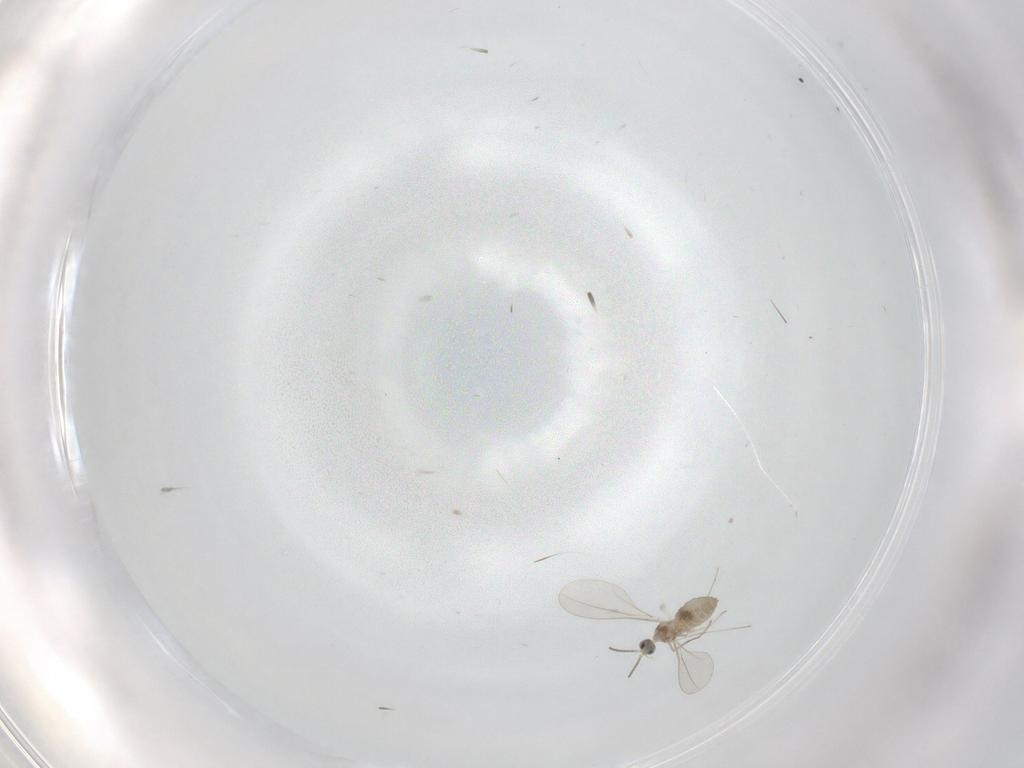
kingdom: Animalia
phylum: Arthropoda
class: Insecta
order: Diptera
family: Cecidomyiidae
